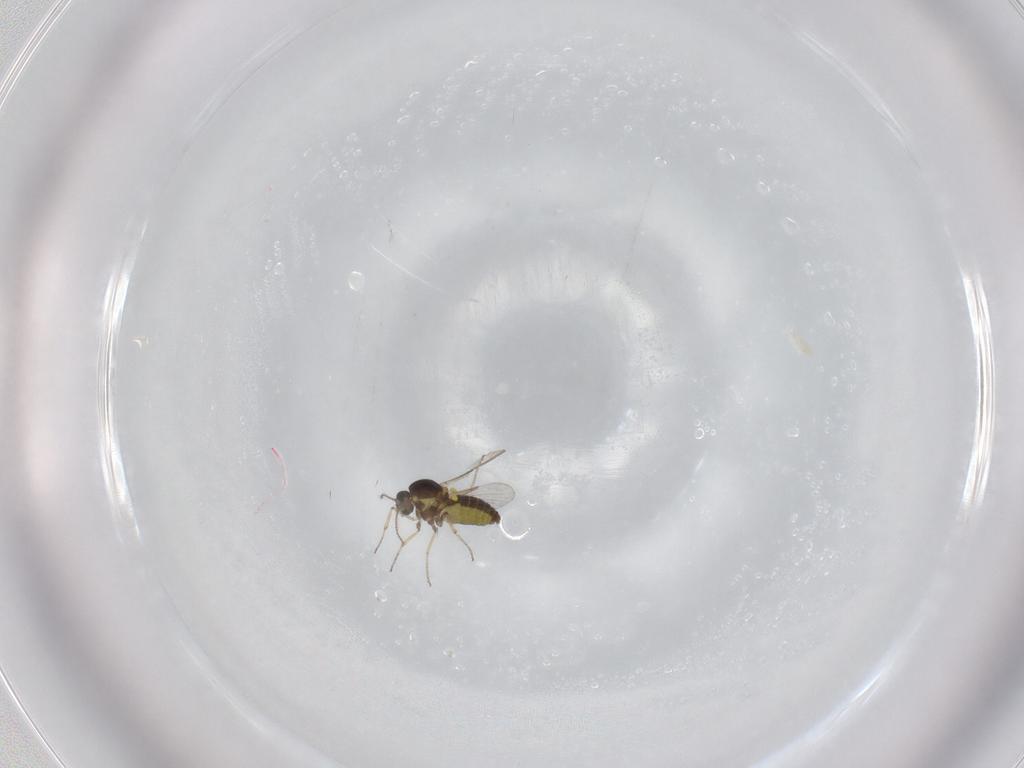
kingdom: Animalia
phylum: Arthropoda
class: Insecta
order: Diptera
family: Ceratopogonidae
